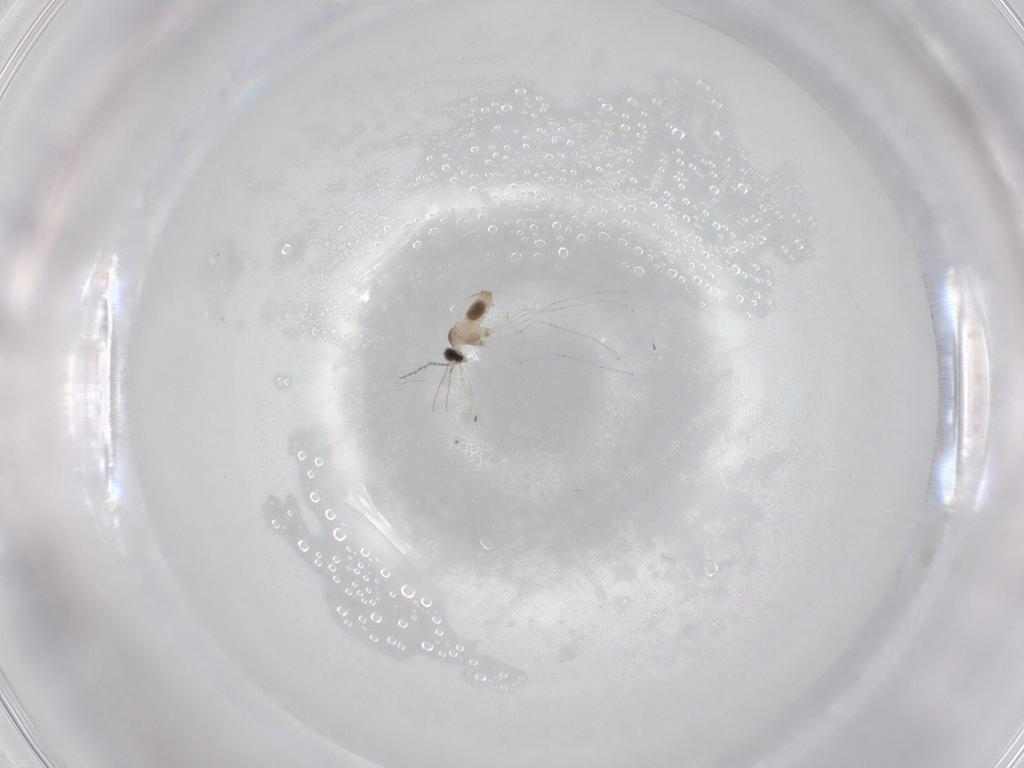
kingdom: Animalia
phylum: Arthropoda
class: Insecta
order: Diptera
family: Cecidomyiidae
